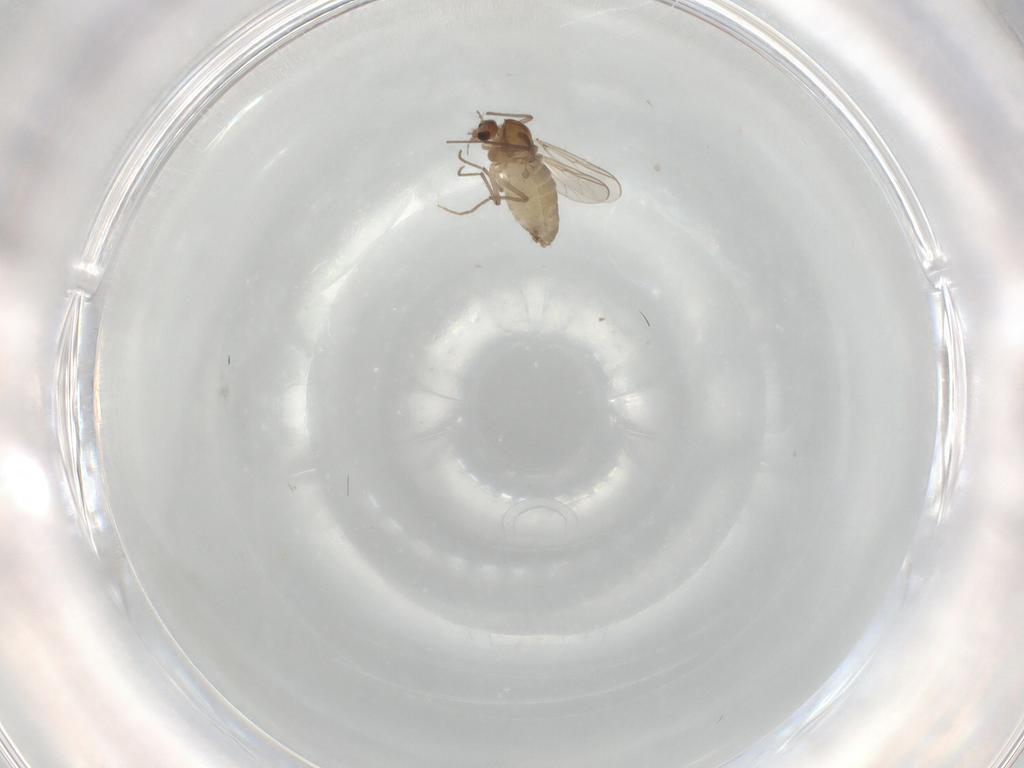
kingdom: Animalia
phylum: Arthropoda
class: Insecta
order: Diptera
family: Chironomidae
